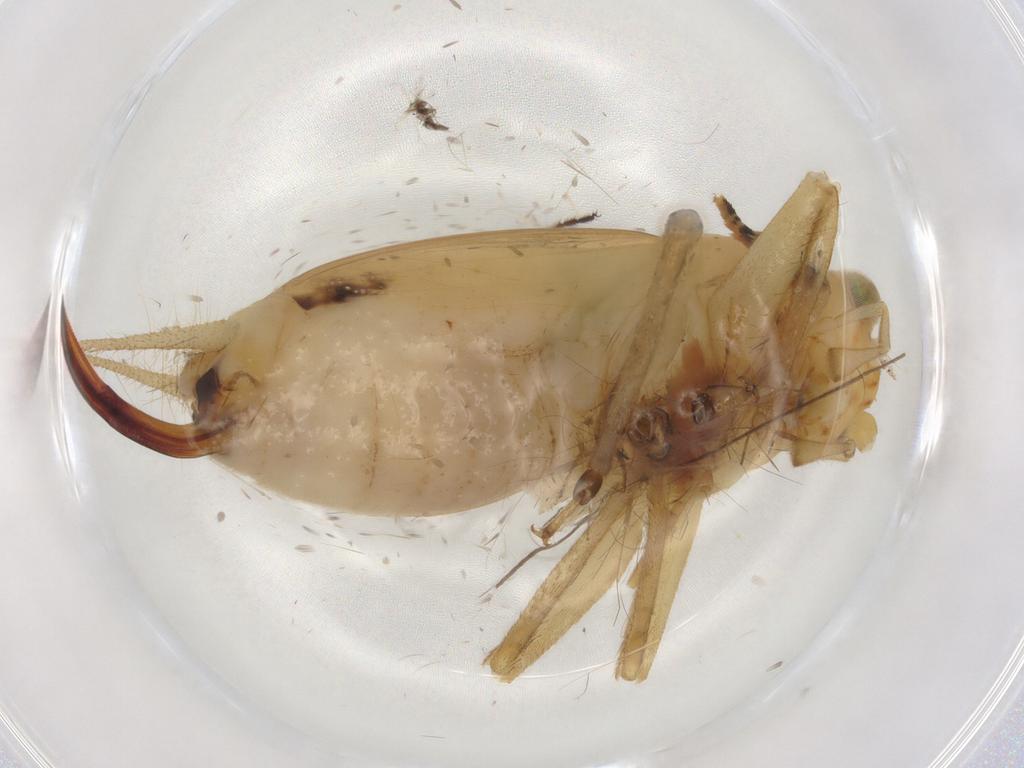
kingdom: Animalia
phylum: Arthropoda
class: Insecta
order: Orthoptera
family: Trigonidiidae
